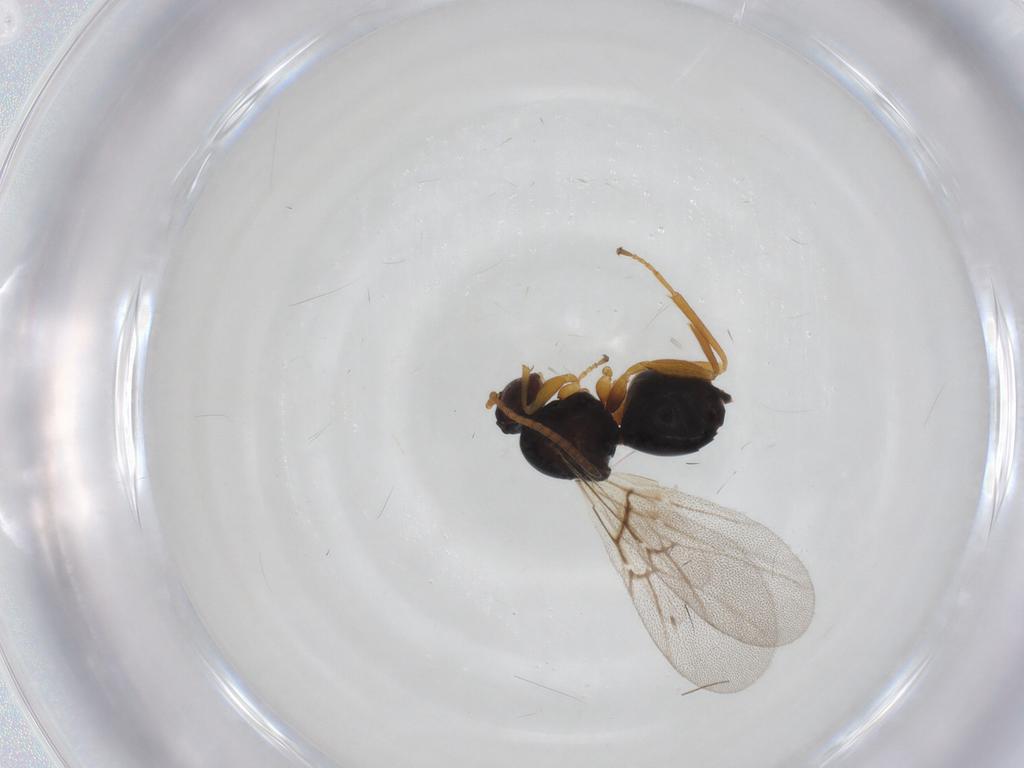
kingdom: Animalia
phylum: Arthropoda
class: Insecta
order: Hymenoptera
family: Cynipidae
